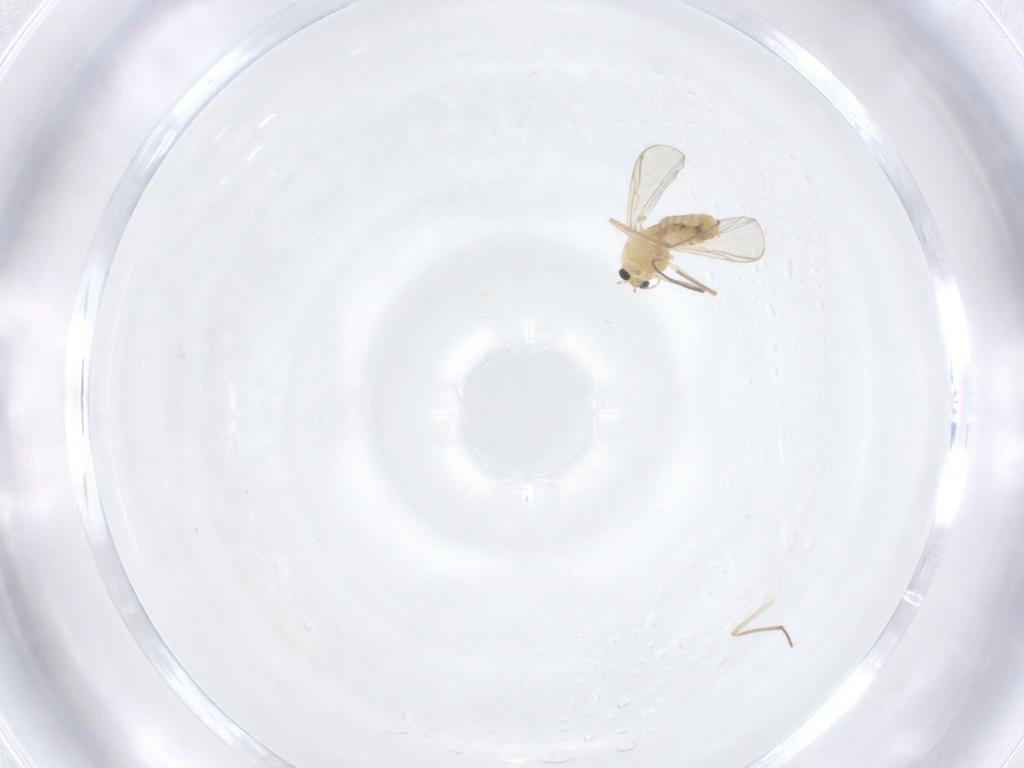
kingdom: Animalia
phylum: Arthropoda
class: Insecta
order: Diptera
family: Chironomidae
